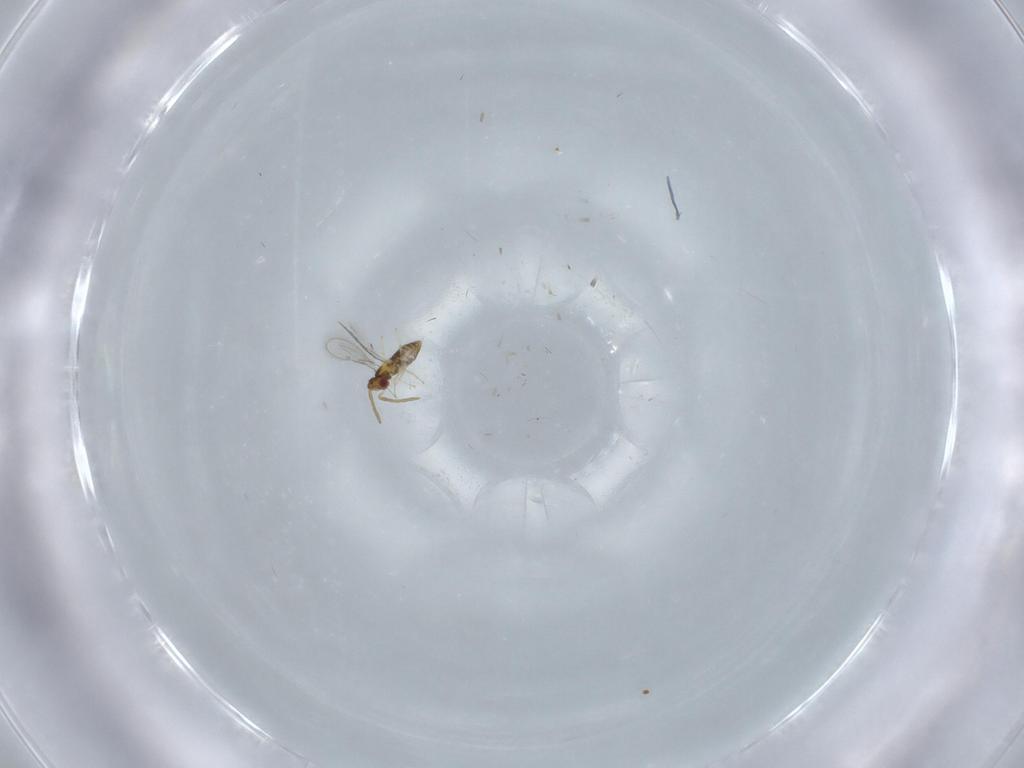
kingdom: Animalia
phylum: Arthropoda
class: Insecta
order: Hymenoptera
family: Aphelinidae
